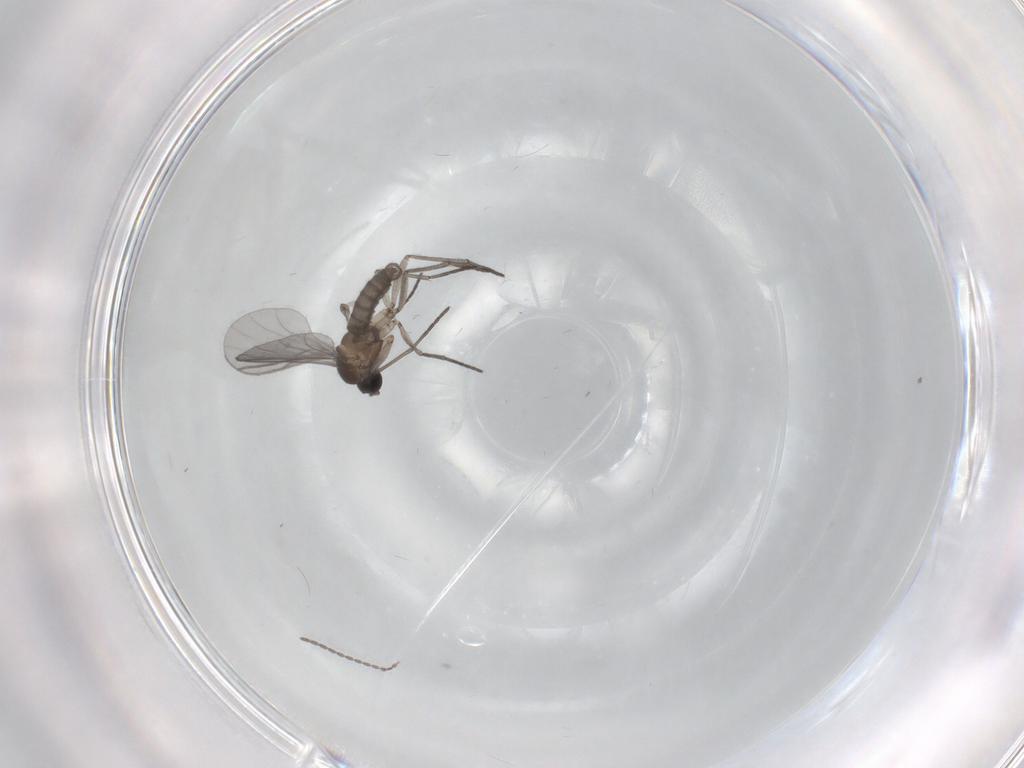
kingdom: Animalia
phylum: Arthropoda
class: Insecta
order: Diptera
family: Cecidomyiidae
